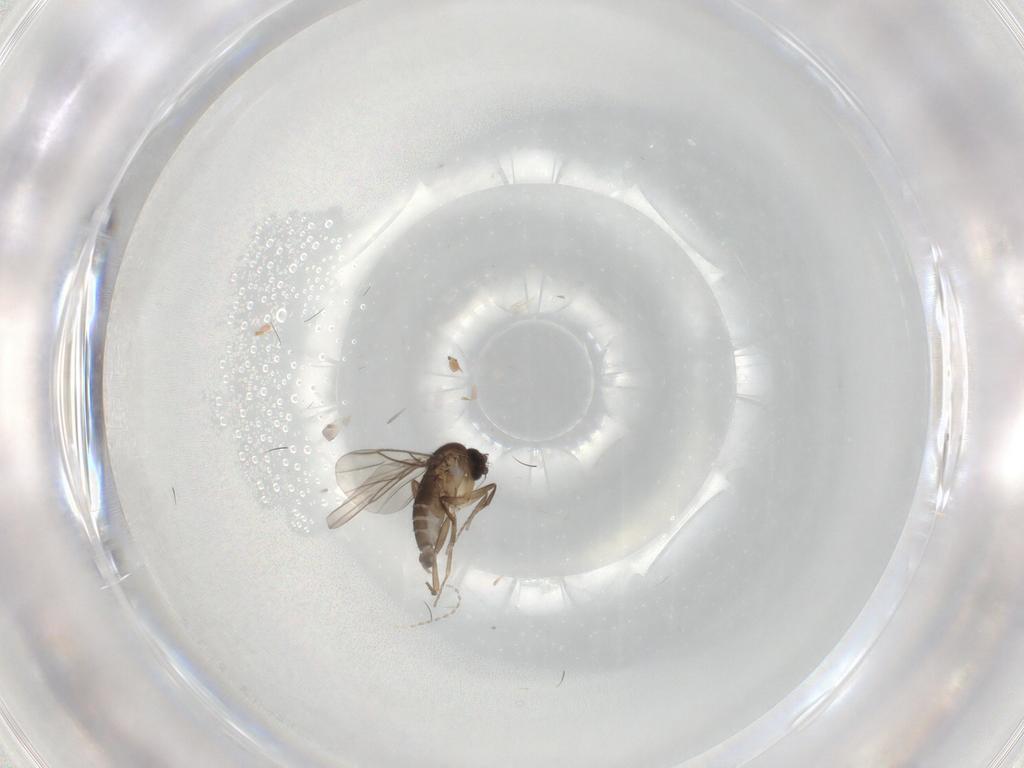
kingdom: Animalia
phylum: Arthropoda
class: Insecta
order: Diptera
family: Phoridae
